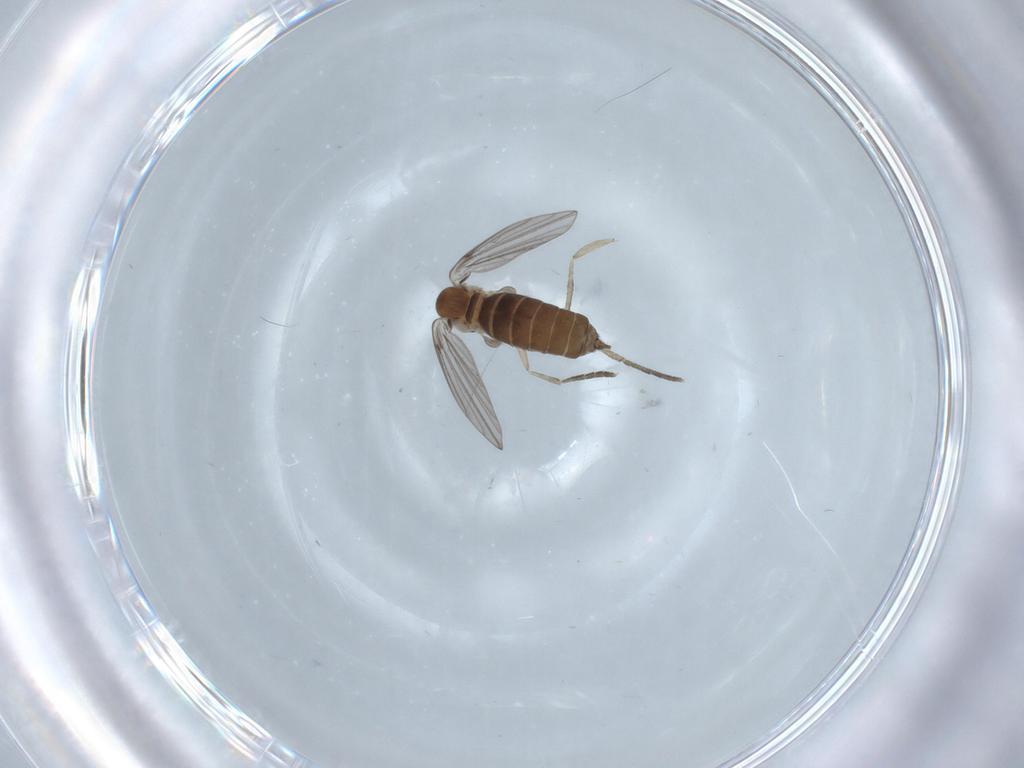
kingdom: Animalia
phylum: Arthropoda
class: Insecta
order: Diptera
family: Psychodidae
